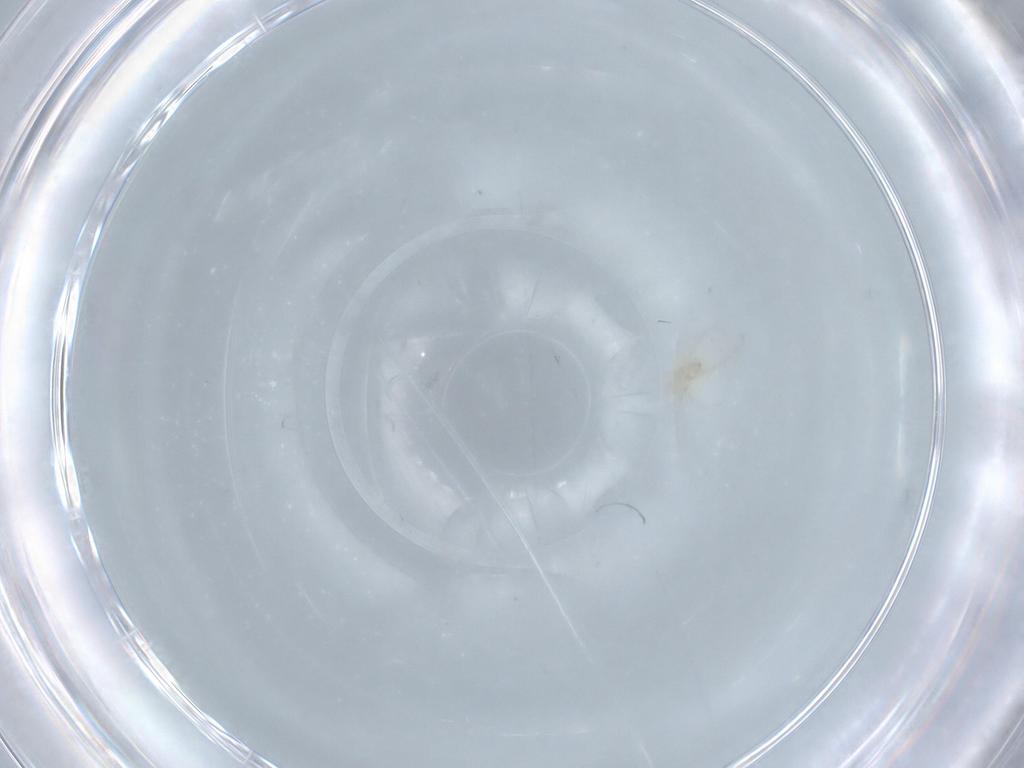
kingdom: Animalia
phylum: Arthropoda
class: Arachnida
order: Trombidiformes
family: Erythraeidae
